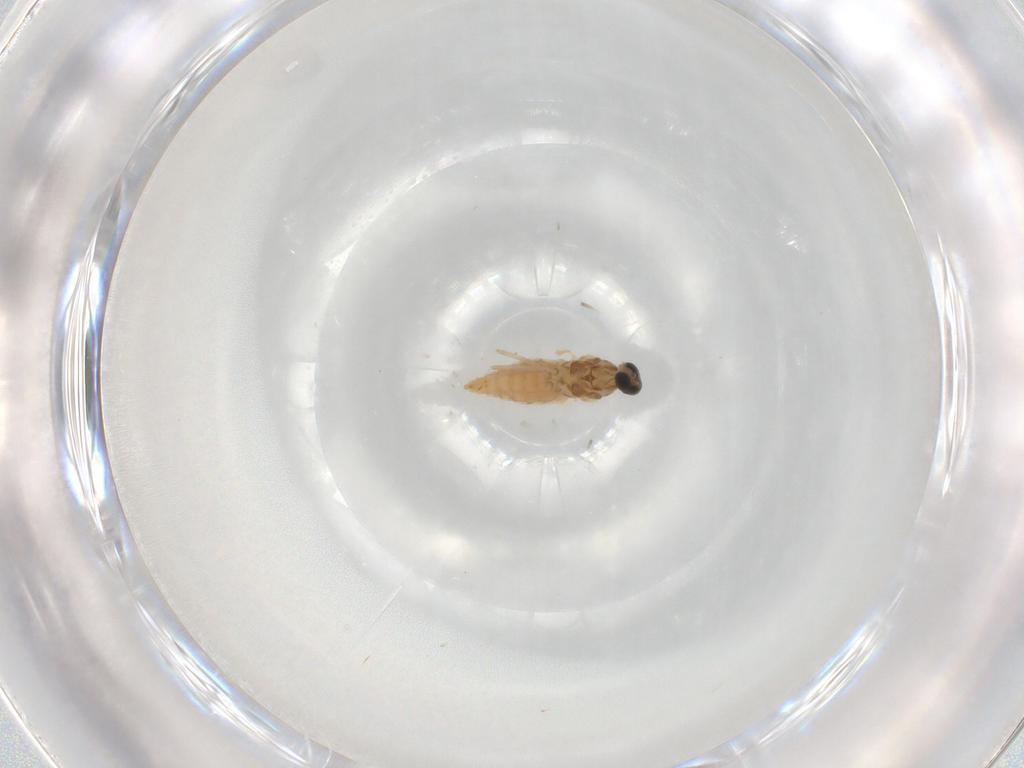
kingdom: Animalia
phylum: Arthropoda
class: Insecta
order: Diptera
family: Cecidomyiidae
